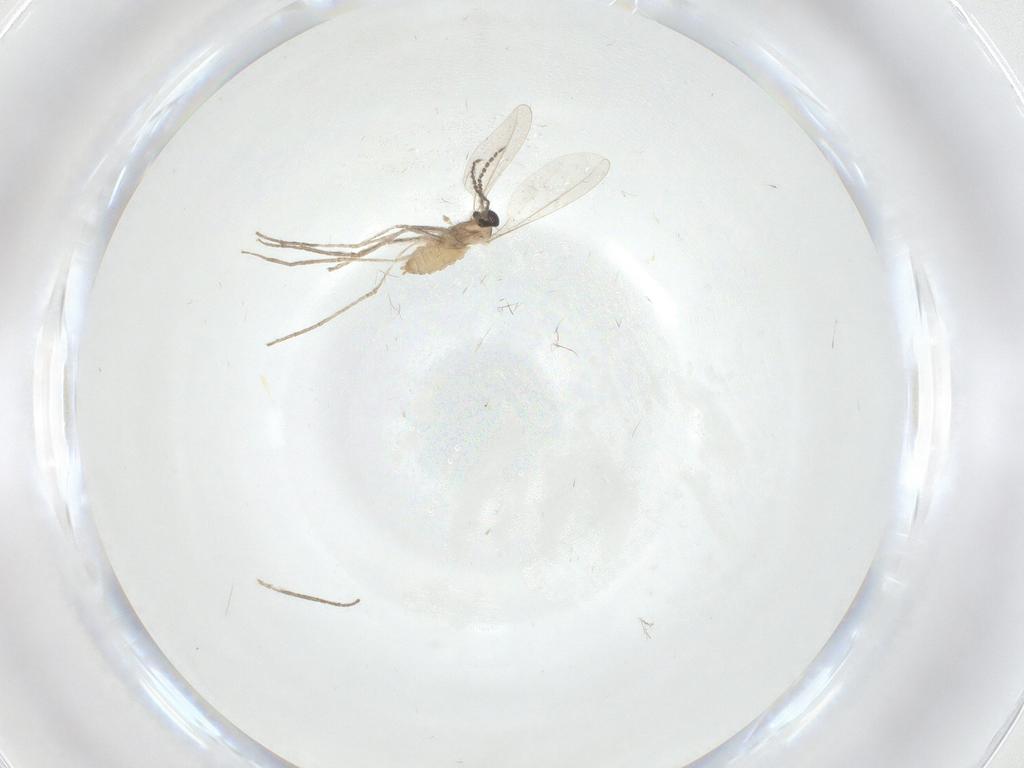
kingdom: Animalia
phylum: Arthropoda
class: Insecta
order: Diptera
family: Cecidomyiidae
